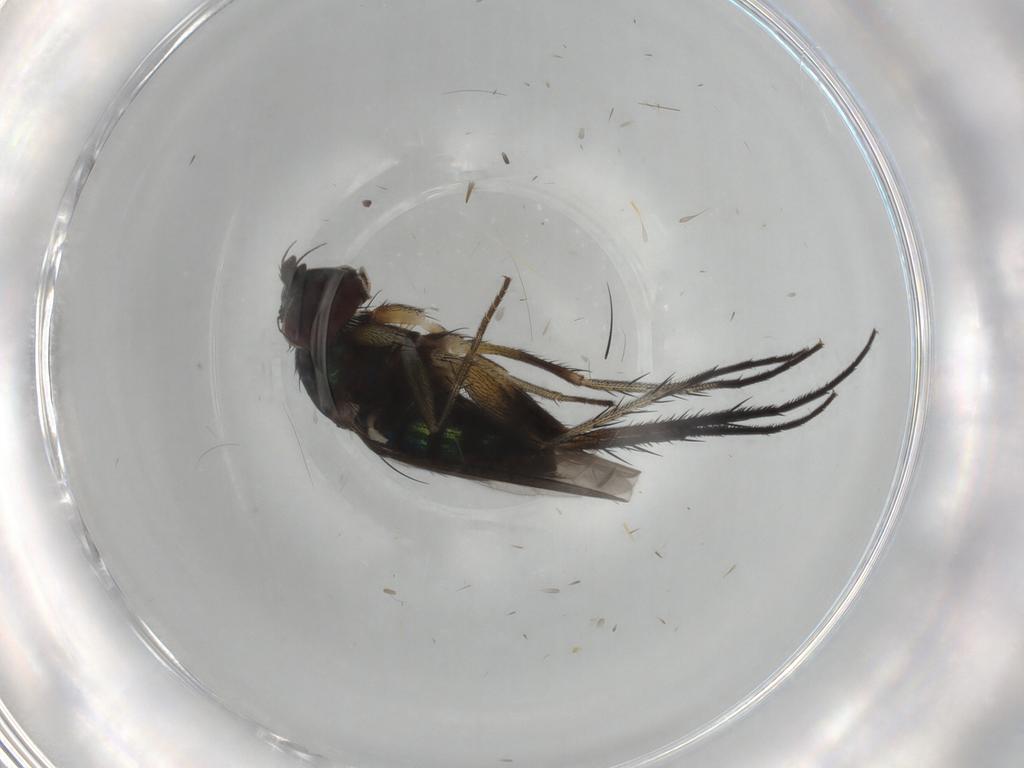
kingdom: Animalia
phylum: Arthropoda
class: Insecta
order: Diptera
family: Dolichopodidae
